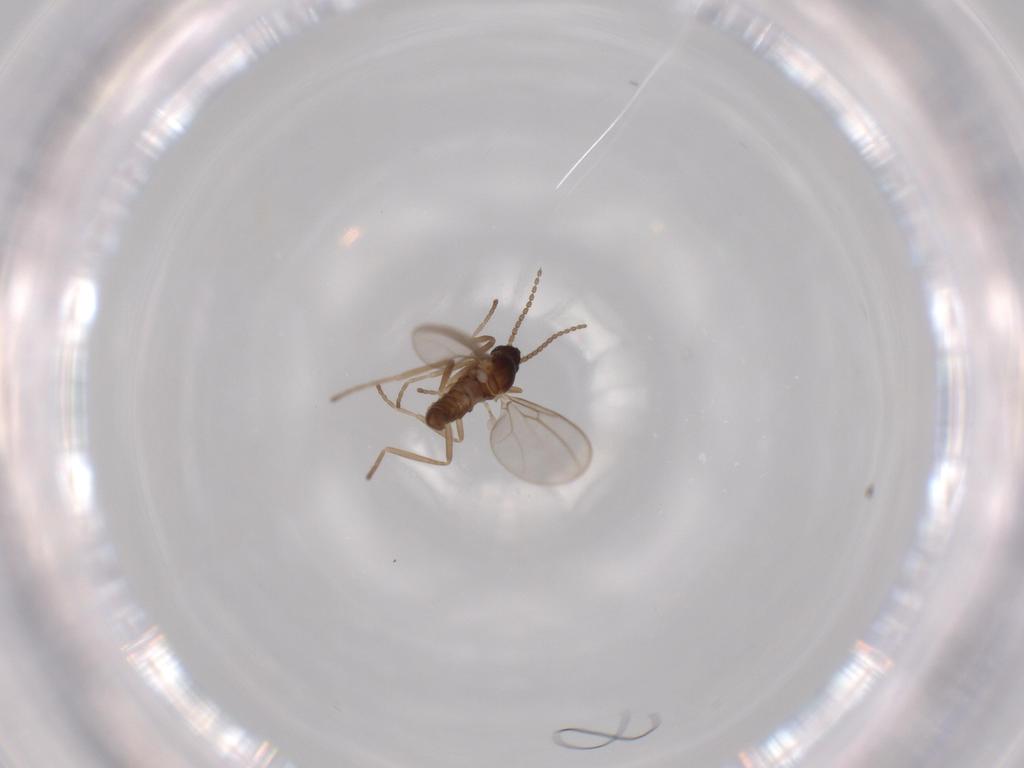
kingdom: Animalia
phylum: Arthropoda
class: Insecta
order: Diptera
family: Cecidomyiidae
